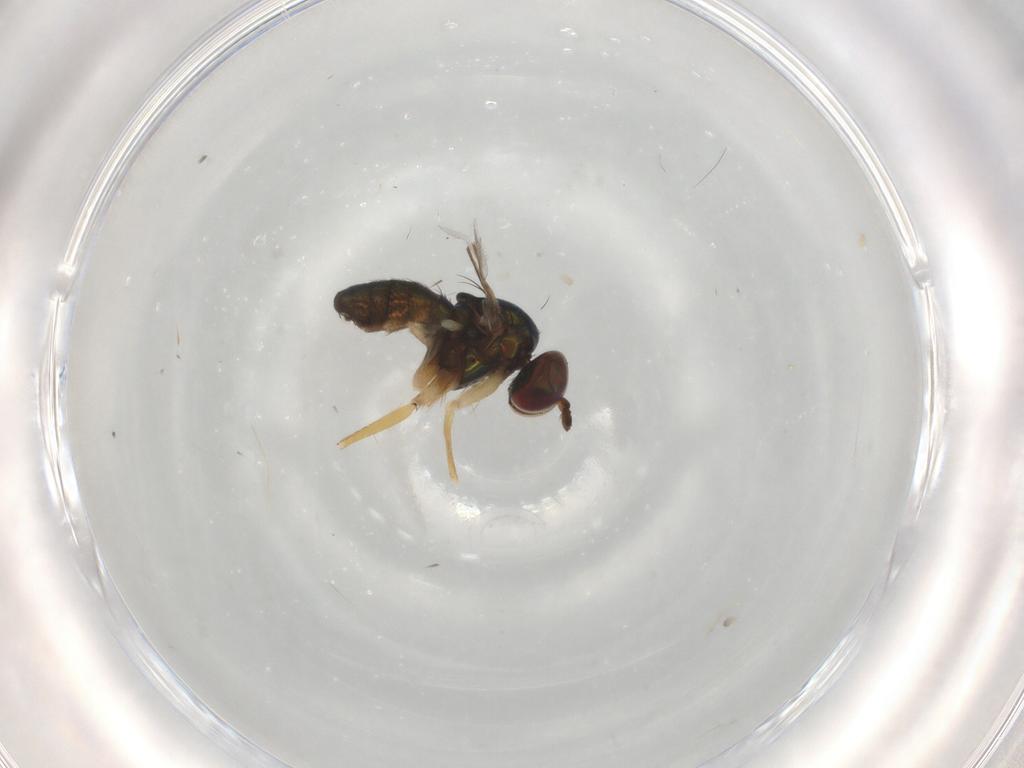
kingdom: Animalia
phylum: Arthropoda
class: Insecta
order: Diptera
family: Dolichopodidae
